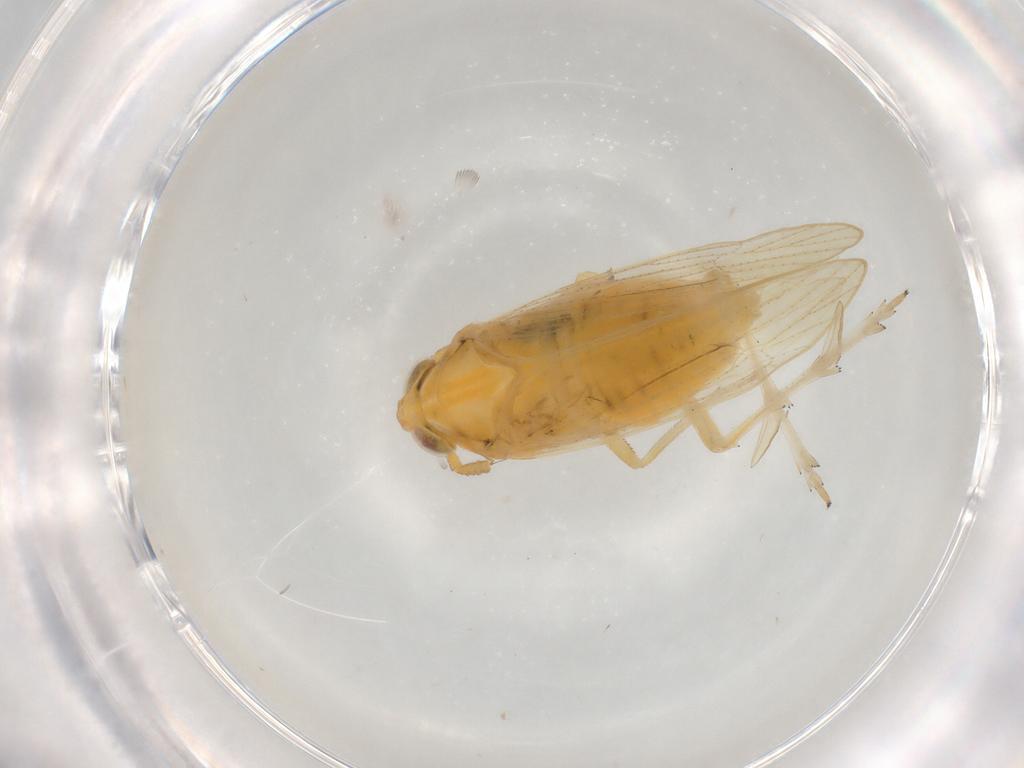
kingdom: Animalia
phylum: Arthropoda
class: Insecta
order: Hemiptera
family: Delphacidae
